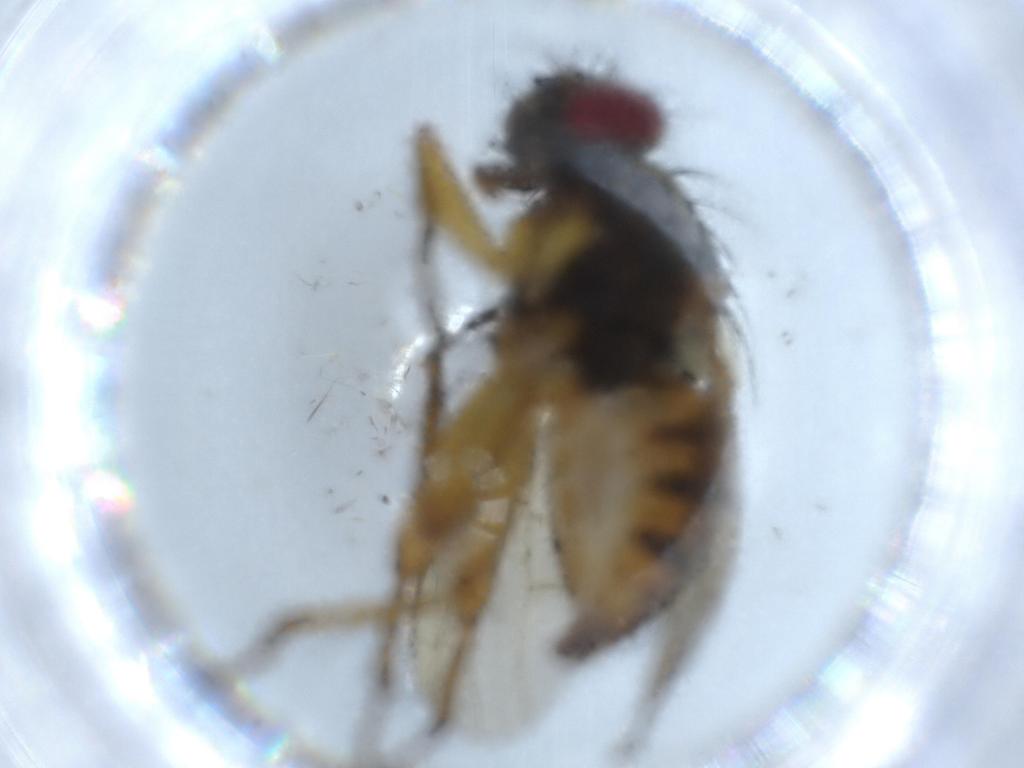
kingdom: Animalia
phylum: Arthropoda
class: Insecta
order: Diptera
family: Muscidae
